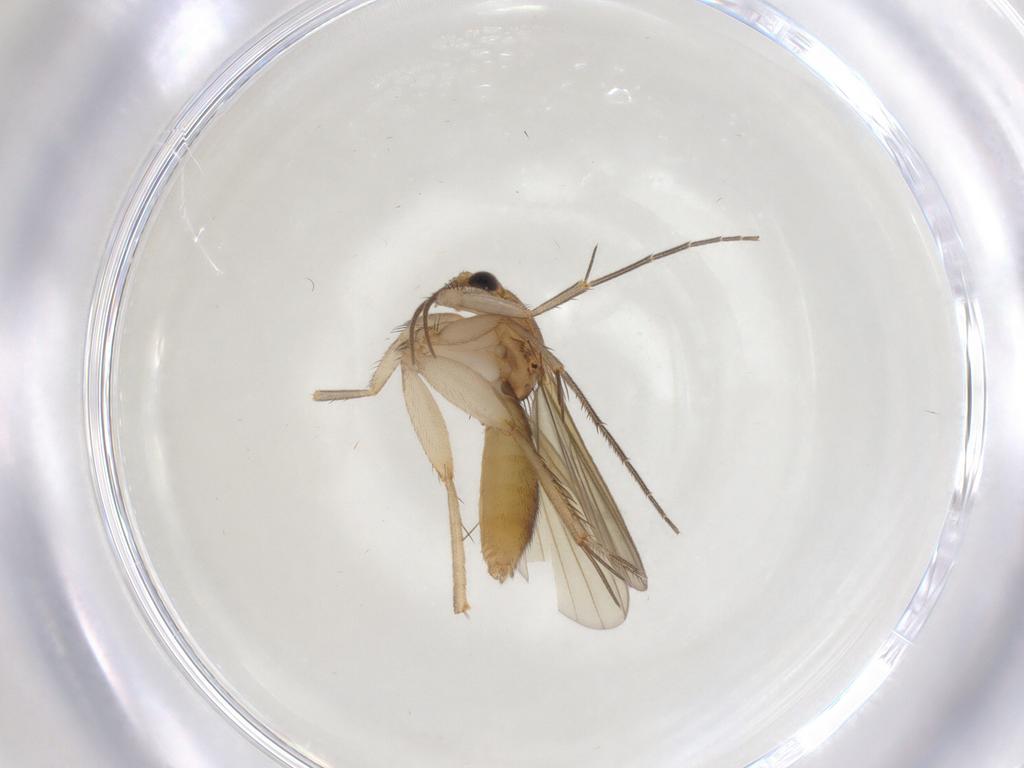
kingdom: Animalia
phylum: Arthropoda
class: Insecta
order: Diptera
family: Mycetophilidae
